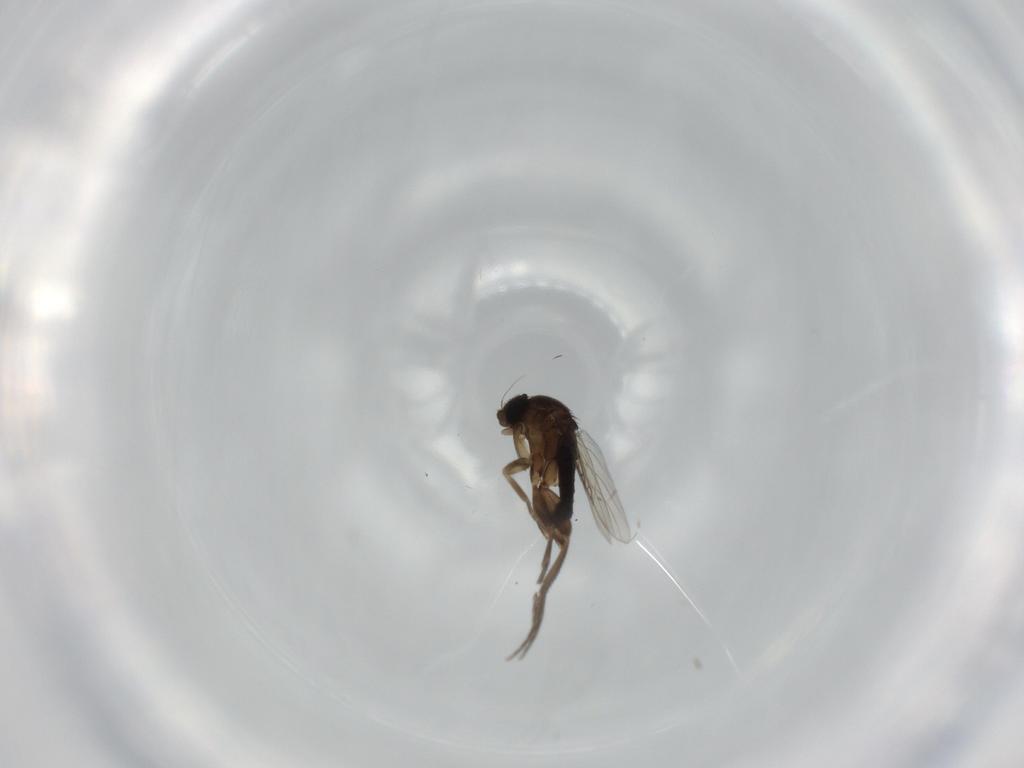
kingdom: Animalia
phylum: Arthropoda
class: Insecta
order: Diptera
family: Phoridae
